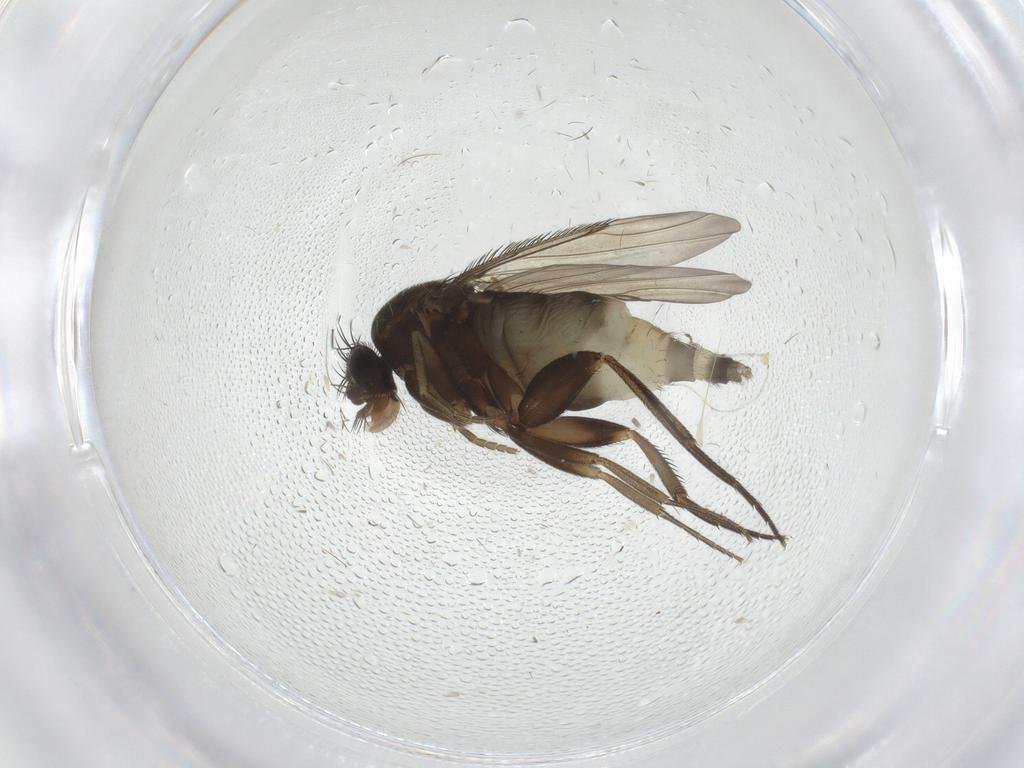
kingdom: Animalia
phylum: Arthropoda
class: Insecta
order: Diptera
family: Phoridae
